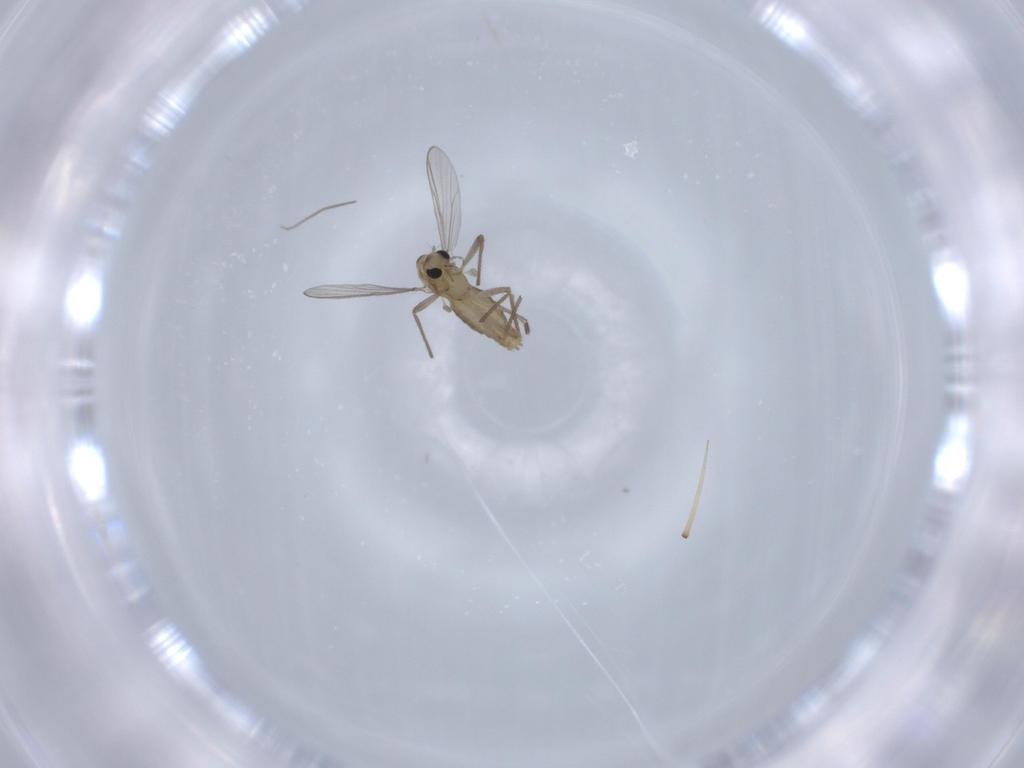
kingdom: Animalia
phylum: Arthropoda
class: Insecta
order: Diptera
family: Chironomidae
